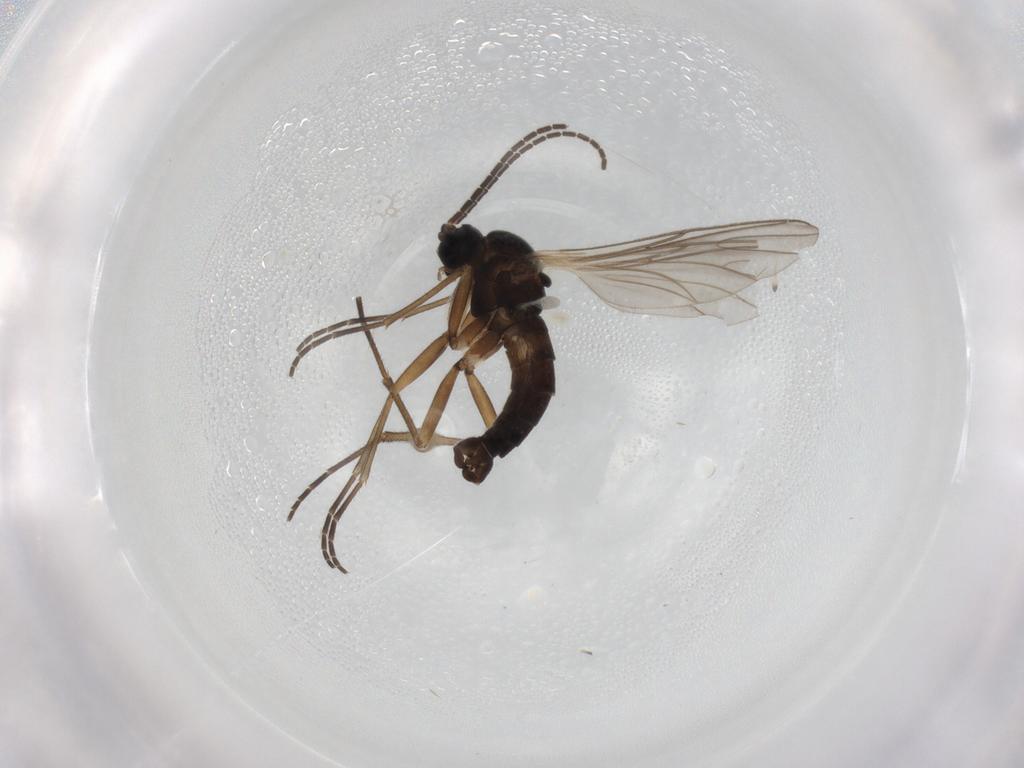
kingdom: Animalia
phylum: Arthropoda
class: Insecta
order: Diptera
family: Sciaridae
